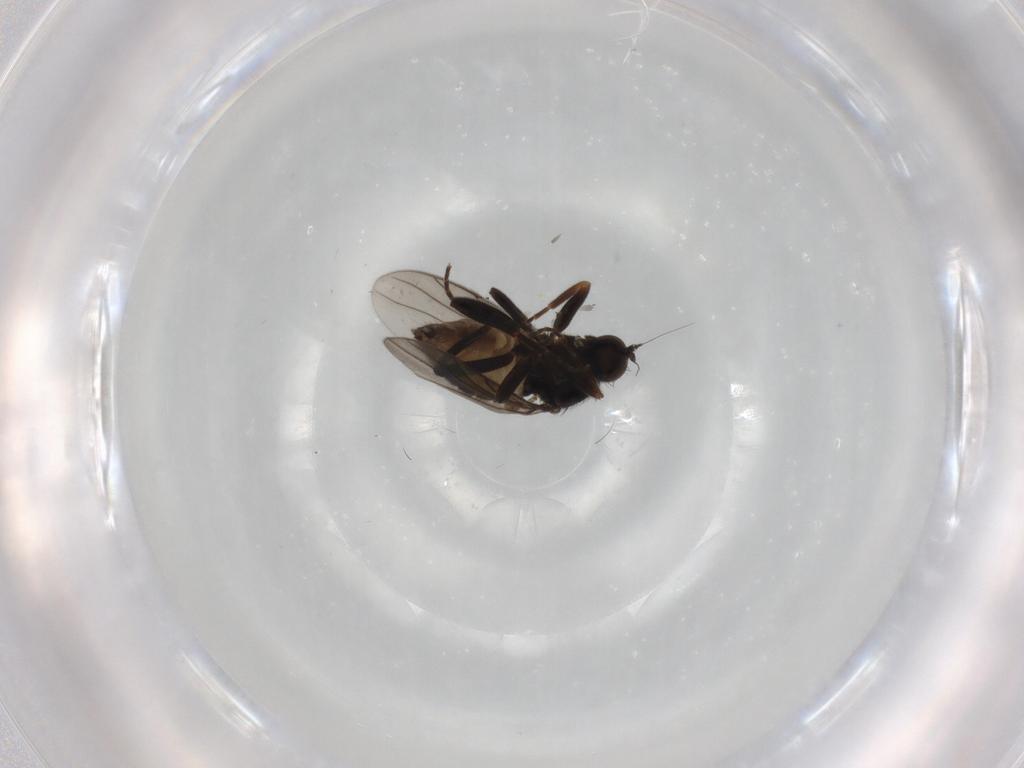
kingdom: Animalia
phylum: Arthropoda
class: Insecta
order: Diptera
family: Hybotidae
